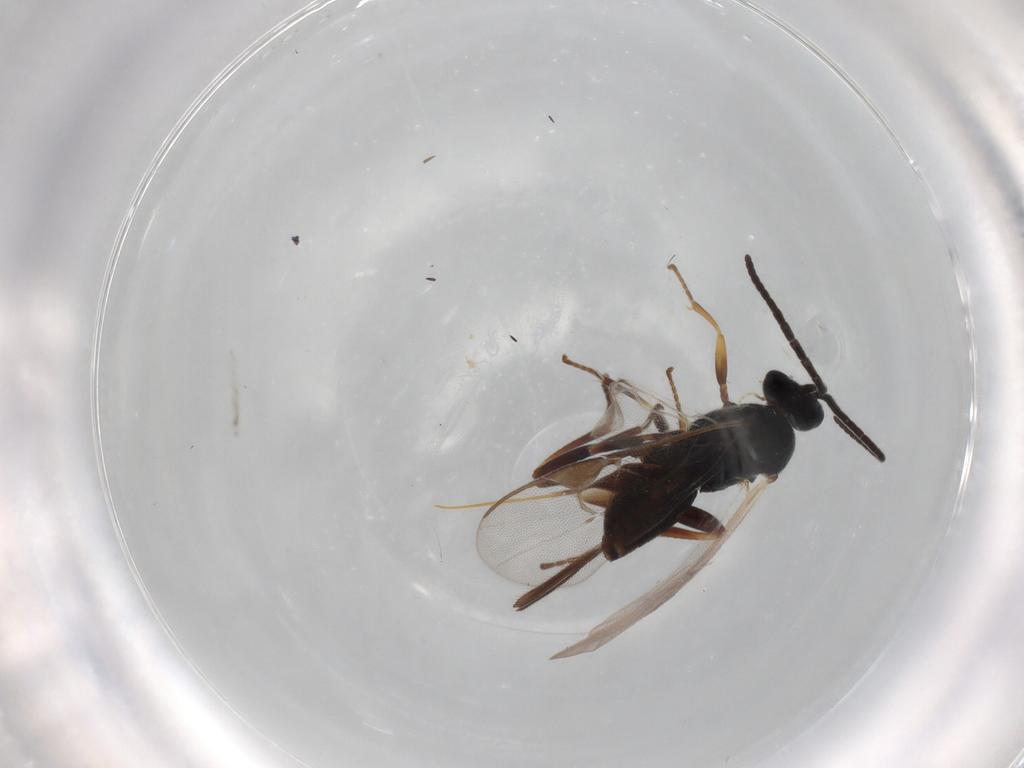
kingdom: Animalia
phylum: Arthropoda
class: Insecta
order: Hymenoptera
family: Braconidae
